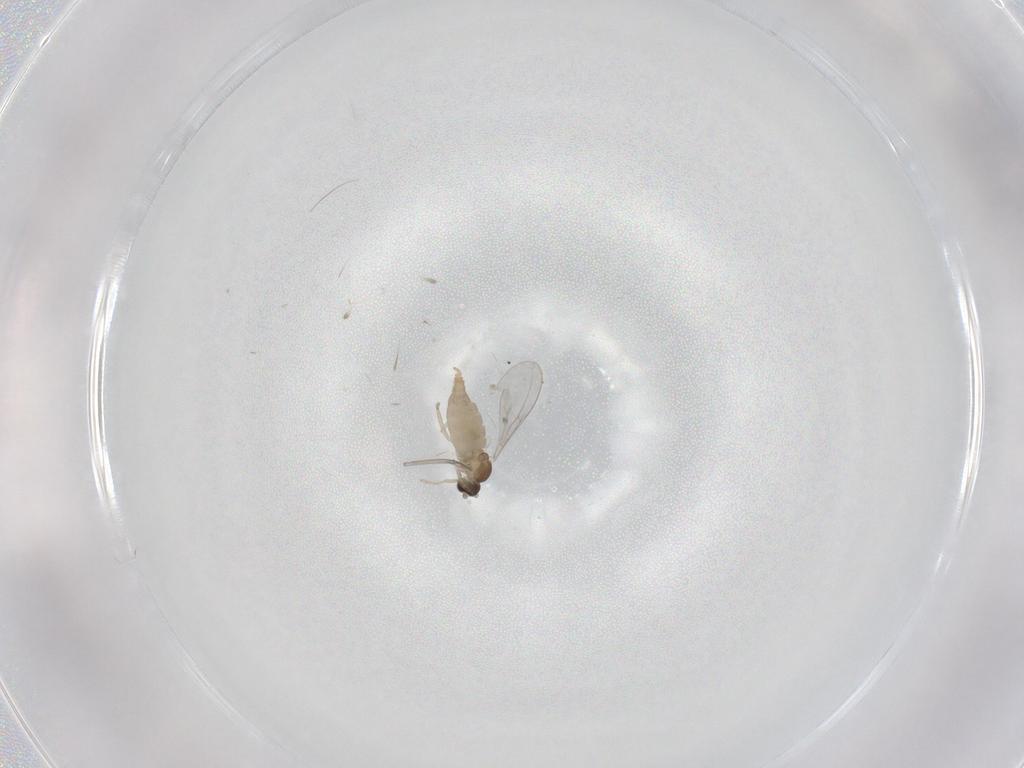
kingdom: Animalia
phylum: Arthropoda
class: Insecta
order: Diptera
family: Cecidomyiidae
